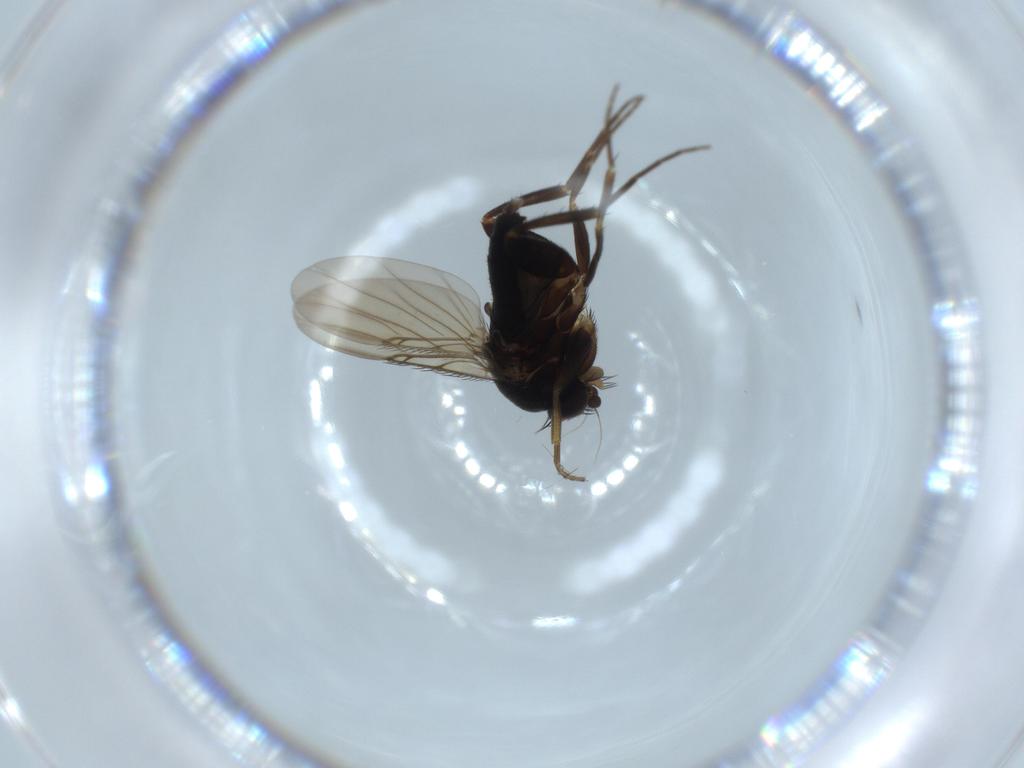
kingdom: Animalia
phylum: Arthropoda
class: Insecta
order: Diptera
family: Phoridae
